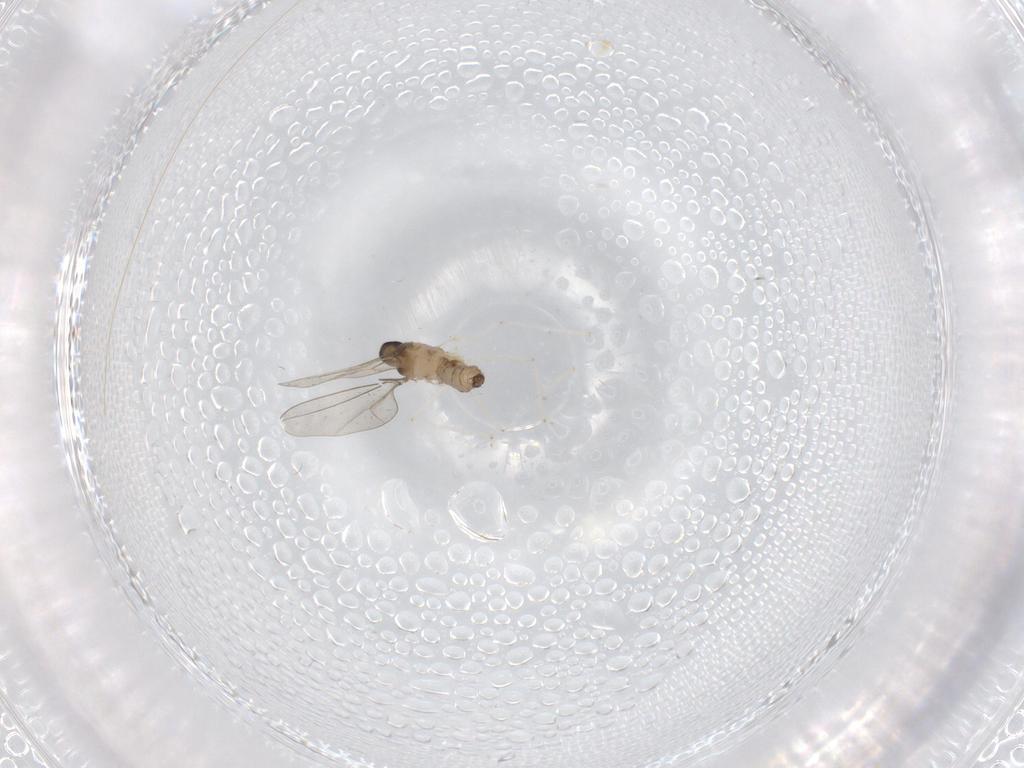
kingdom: Animalia
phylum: Arthropoda
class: Insecta
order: Diptera
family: Cecidomyiidae
